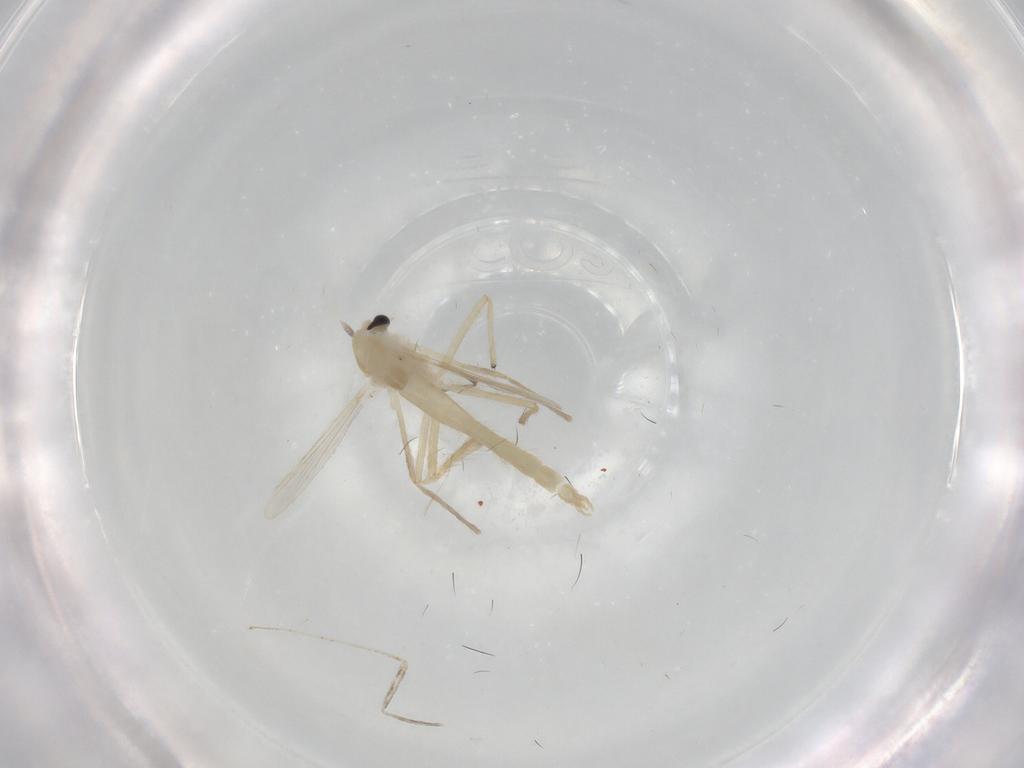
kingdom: Animalia
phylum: Arthropoda
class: Insecta
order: Diptera
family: Cecidomyiidae
